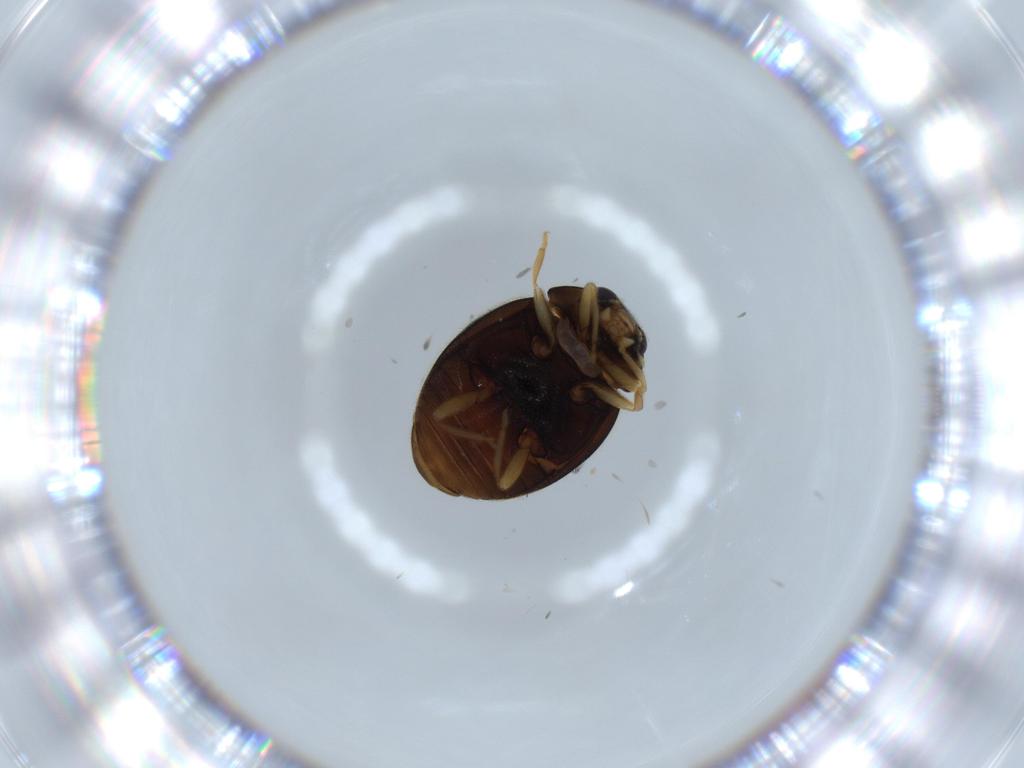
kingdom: Animalia
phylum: Arthropoda
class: Insecta
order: Coleoptera
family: Coccinellidae
